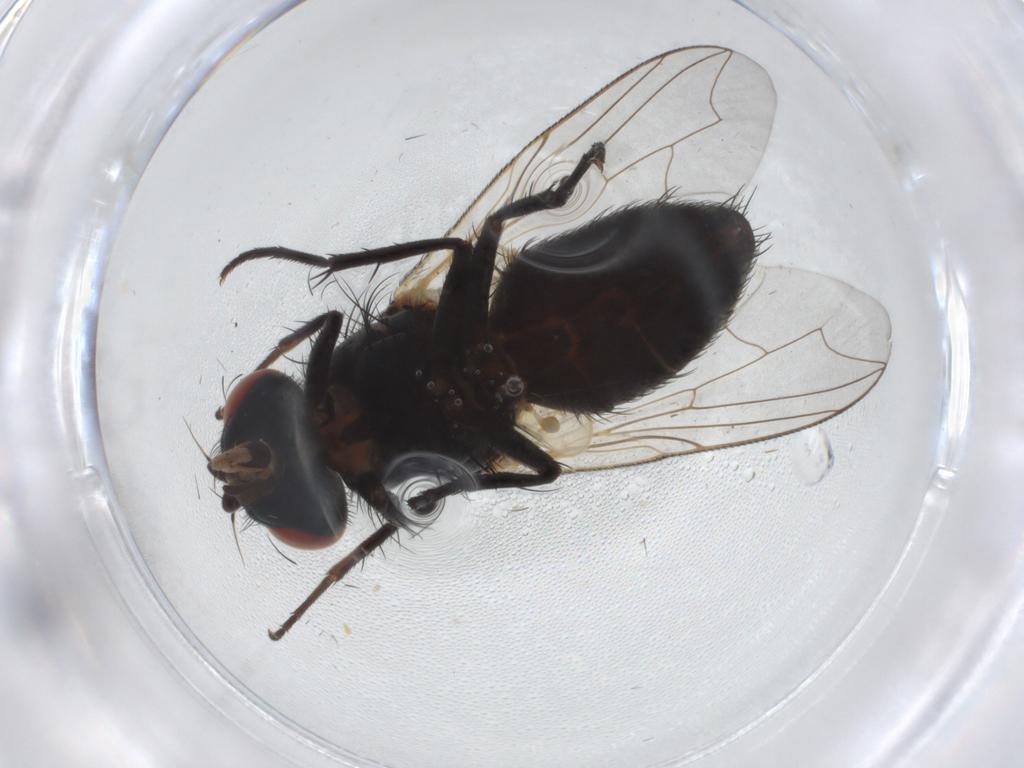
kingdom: Animalia
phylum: Arthropoda
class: Insecta
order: Diptera
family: Sarcophagidae
